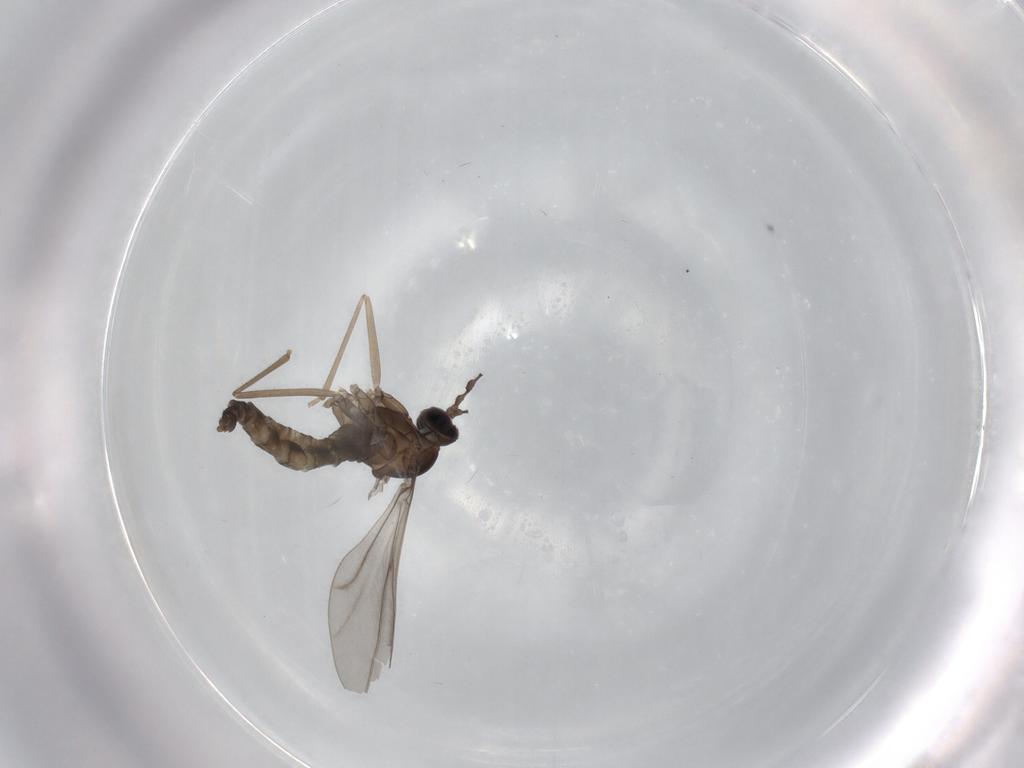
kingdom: Animalia
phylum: Arthropoda
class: Insecta
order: Diptera
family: Cecidomyiidae
